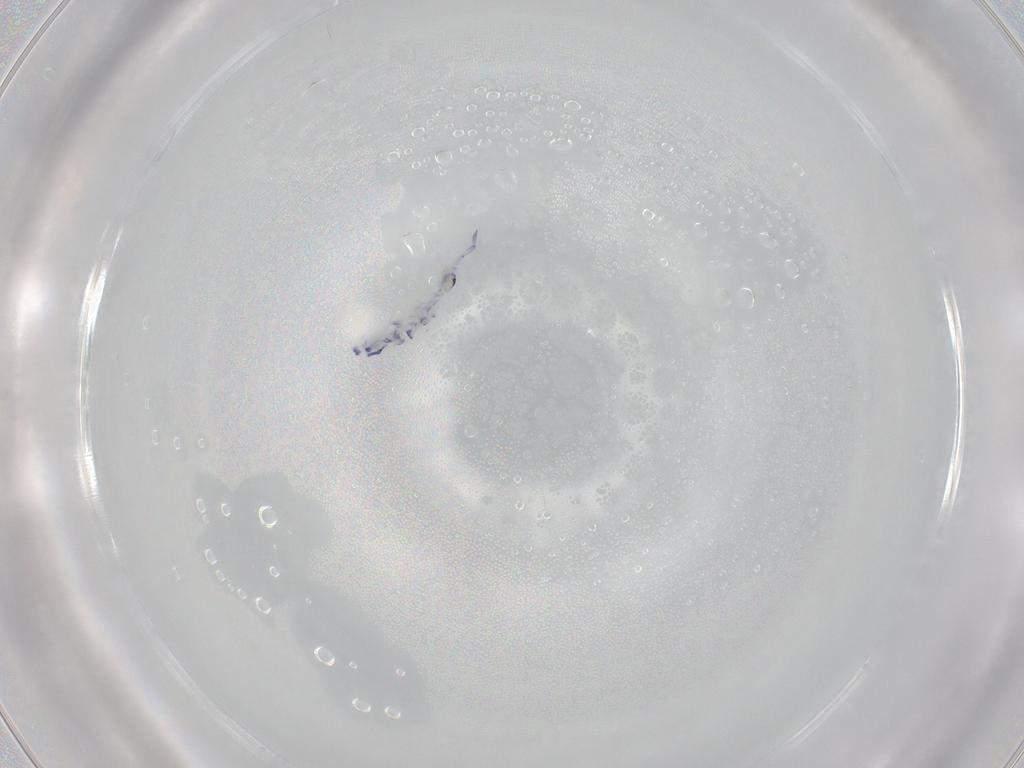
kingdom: Animalia
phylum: Arthropoda
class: Collembola
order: Entomobryomorpha
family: Entomobryidae
